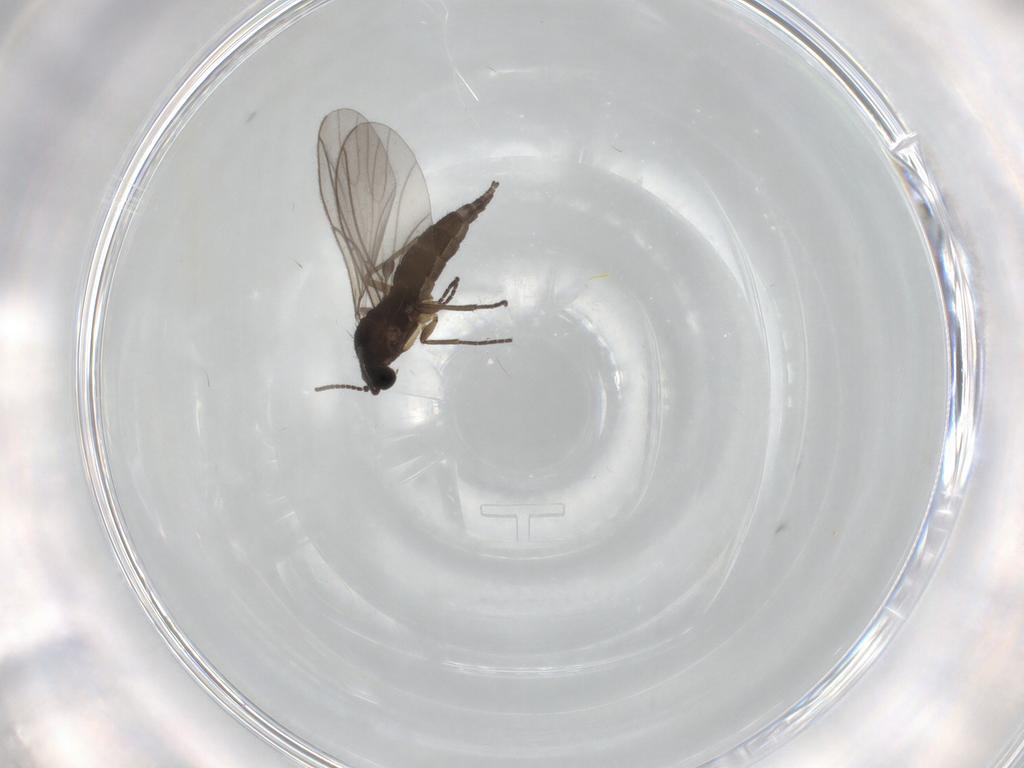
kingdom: Animalia
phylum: Arthropoda
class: Insecta
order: Diptera
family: Sciaridae
